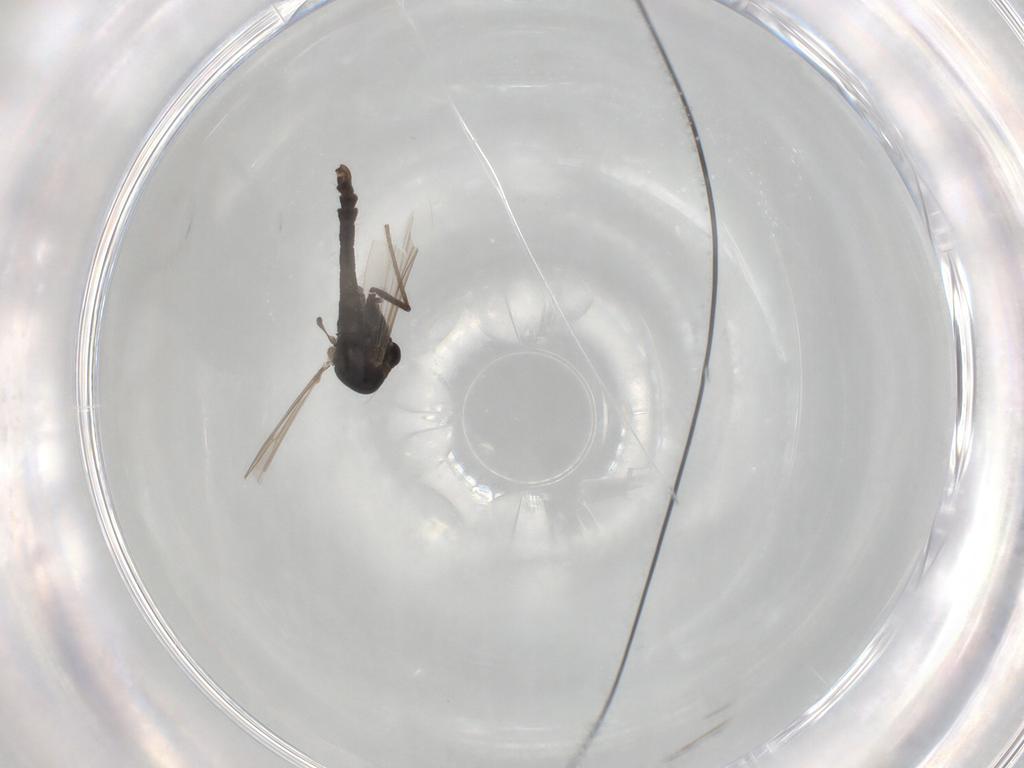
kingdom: Animalia
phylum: Arthropoda
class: Insecta
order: Diptera
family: Chironomidae
